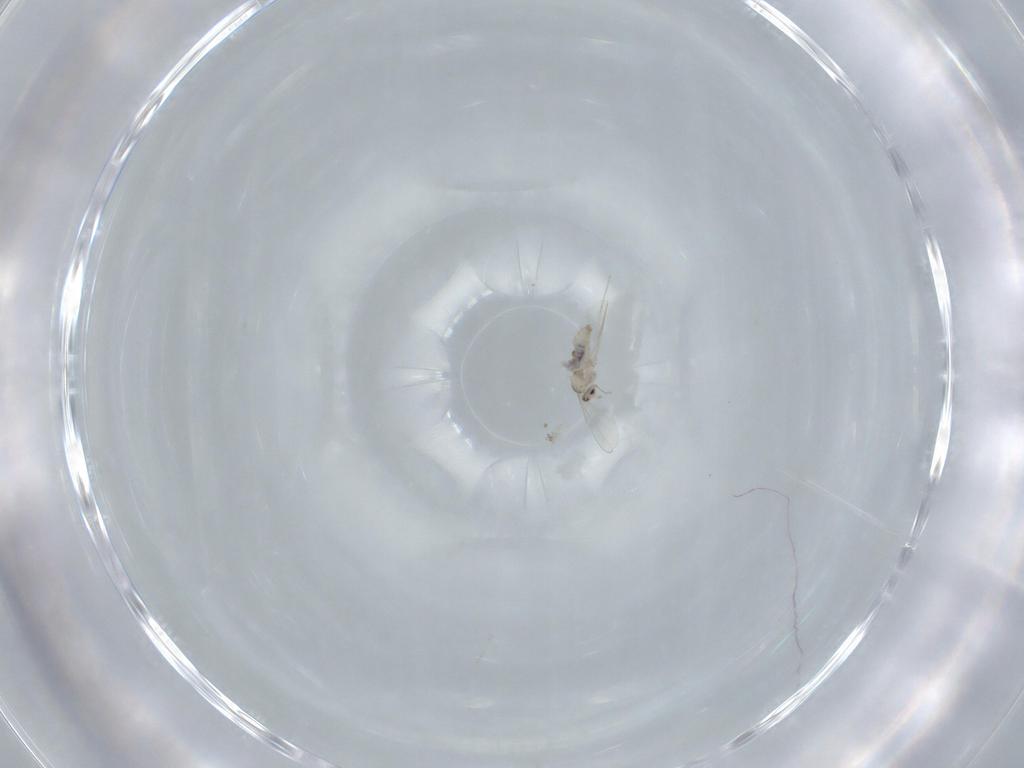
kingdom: Animalia
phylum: Arthropoda
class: Insecta
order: Diptera
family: Cecidomyiidae
